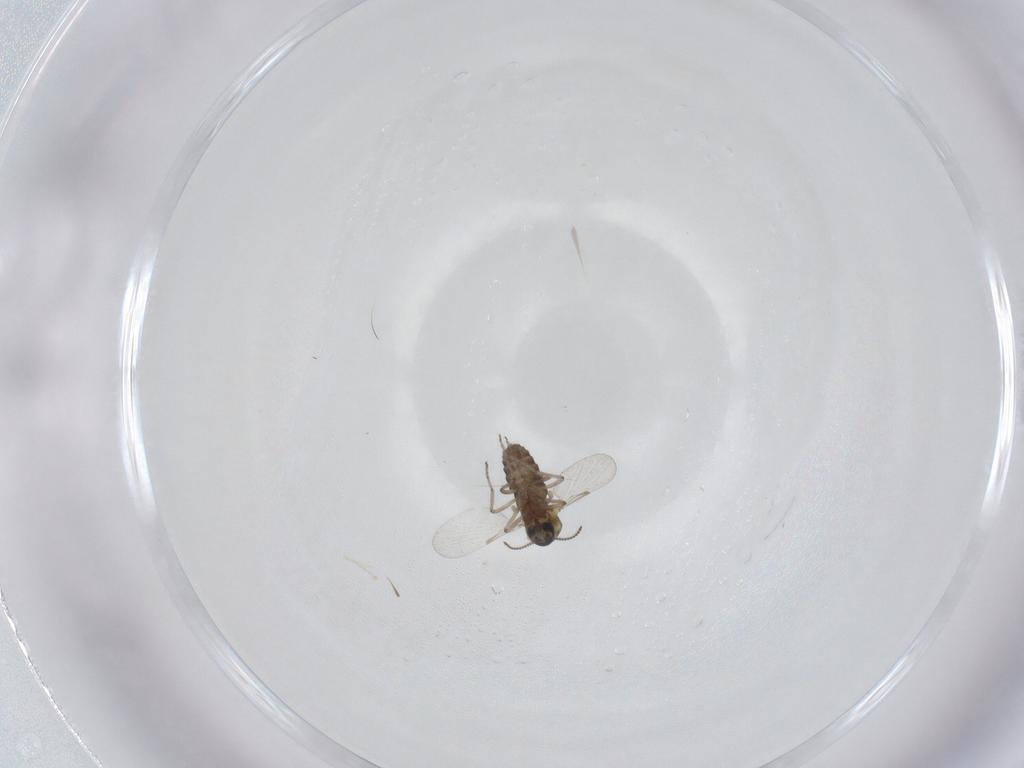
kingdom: Animalia
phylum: Arthropoda
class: Insecta
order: Diptera
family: Ceratopogonidae
